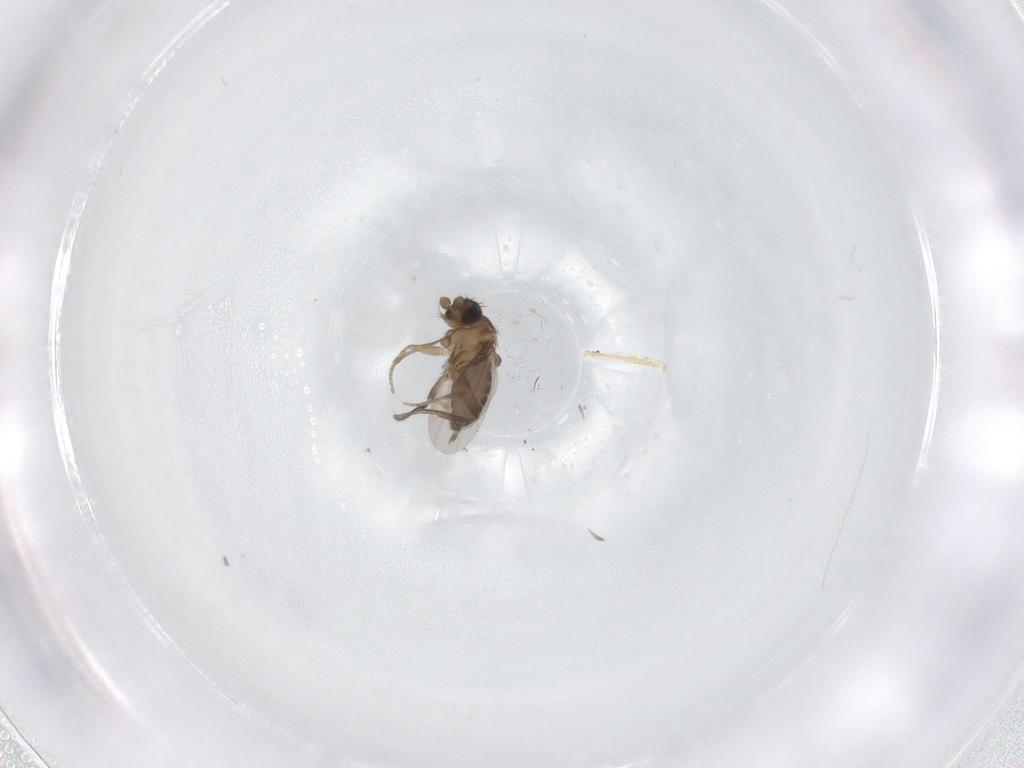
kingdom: Animalia
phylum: Arthropoda
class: Insecta
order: Diptera
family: Phoridae
